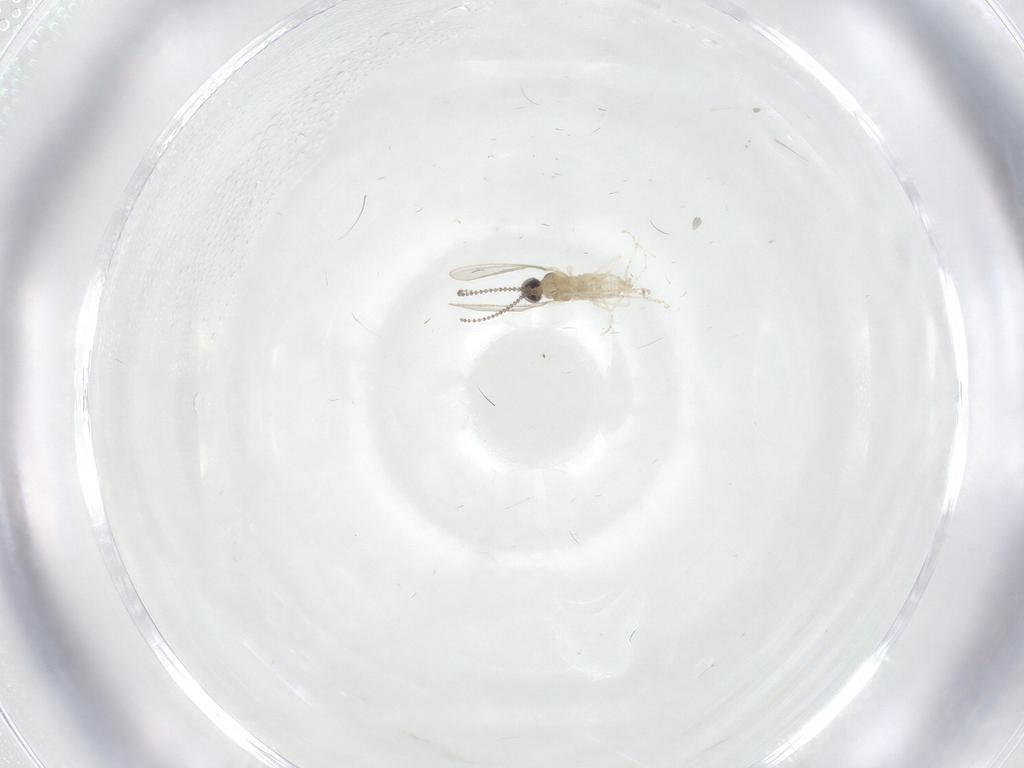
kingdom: Animalia
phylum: Arthropoda
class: Insecta
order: Diptera
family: Cecidomyiidae
